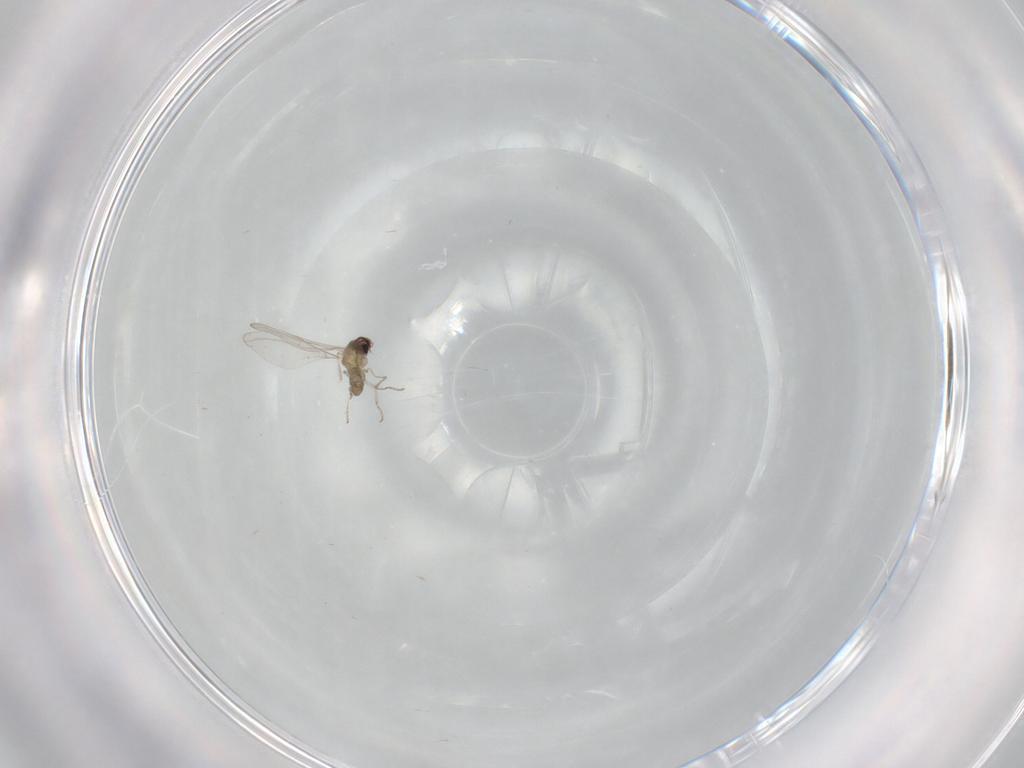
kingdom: Animalia
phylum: Arthropoda
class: Insecta
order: Diptera
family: Cecidomyiidae
